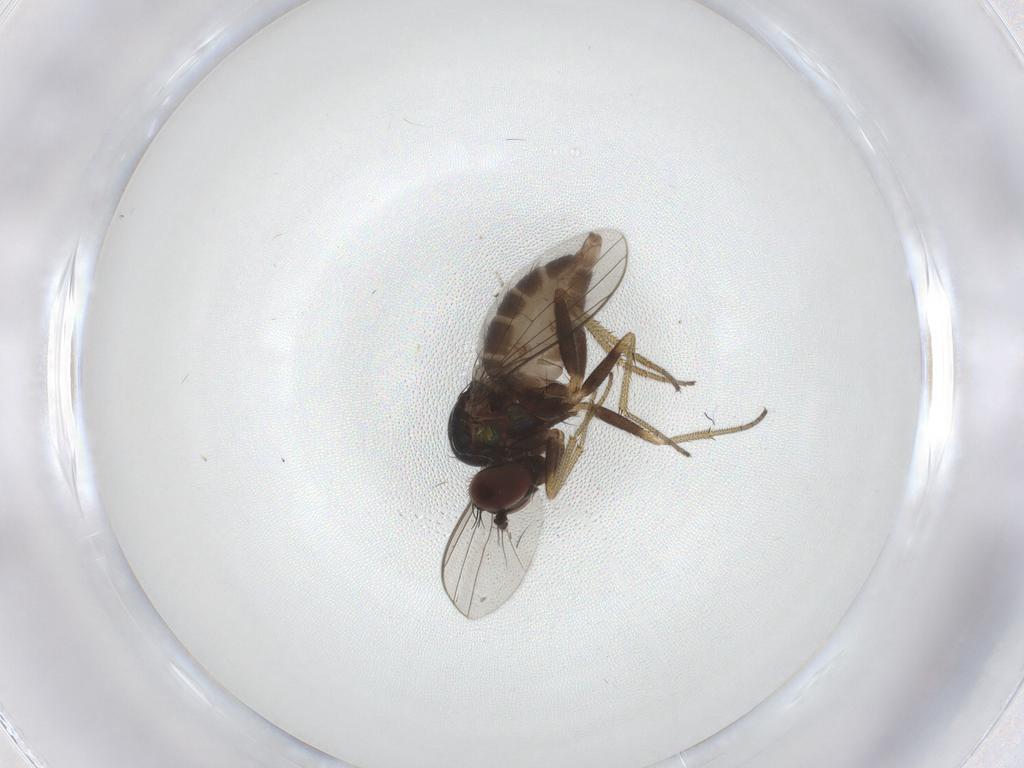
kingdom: Animalia
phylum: Arthropoda
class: Insecta
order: Diptera
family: Dolichopodidae
